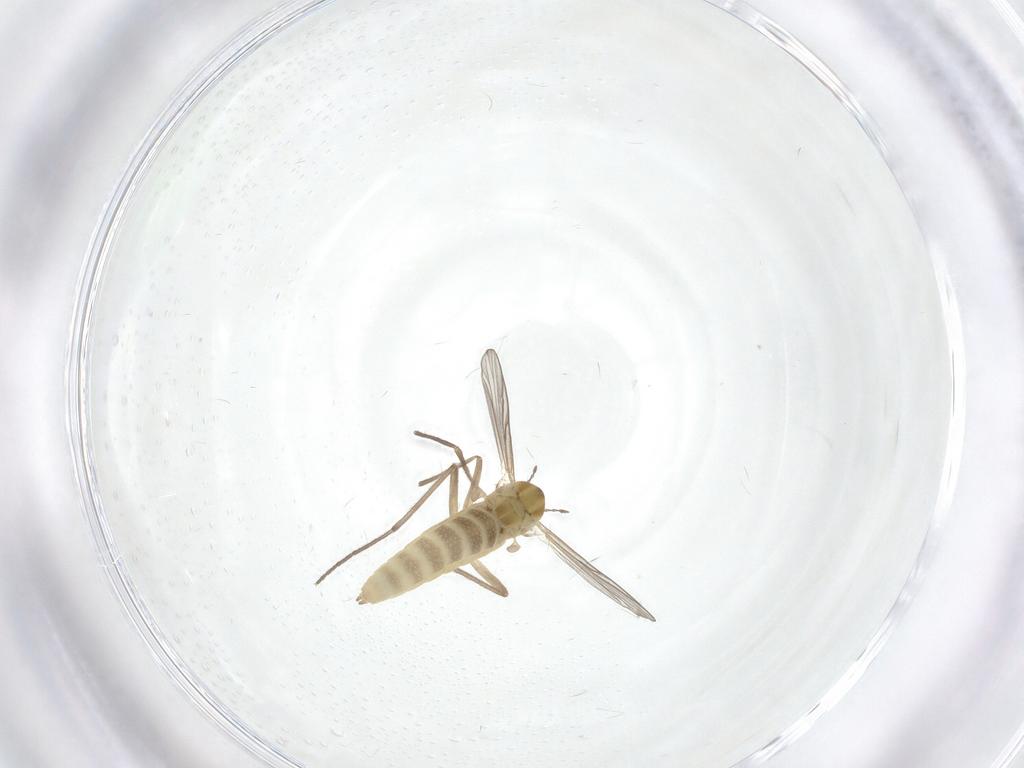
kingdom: Animalia
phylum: Arthropoda
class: Insecta
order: Diptera
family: Chironomidae
